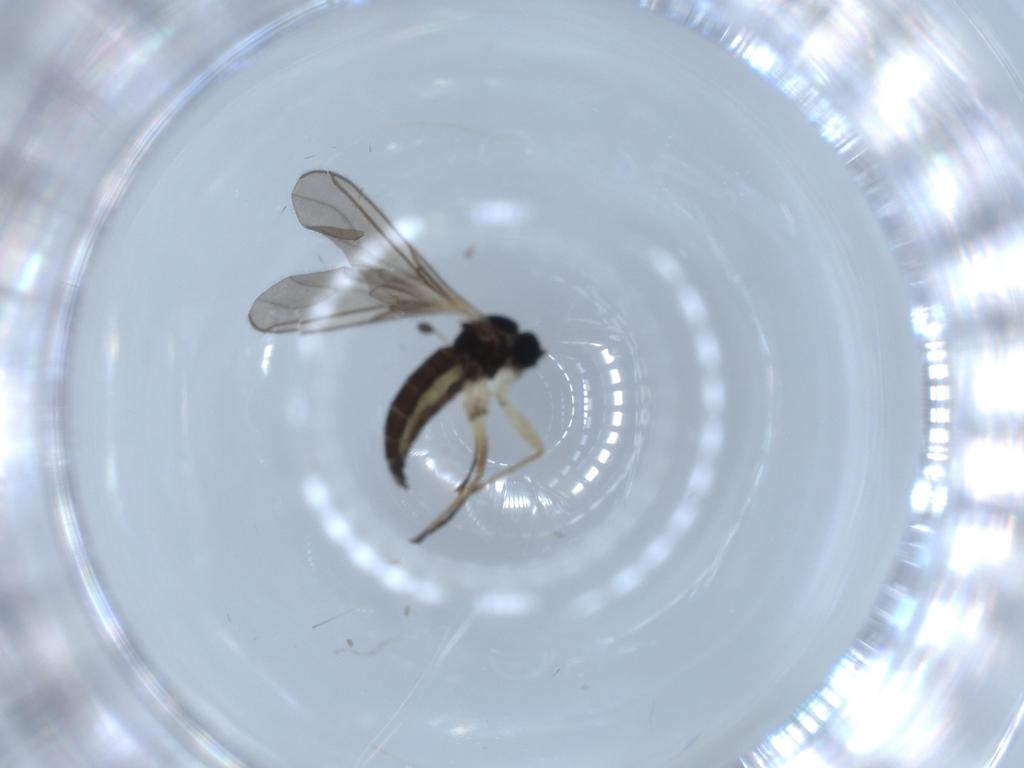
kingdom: Animalia
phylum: Arthropoda
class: Insecta
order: Diptera
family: Sciaridae
